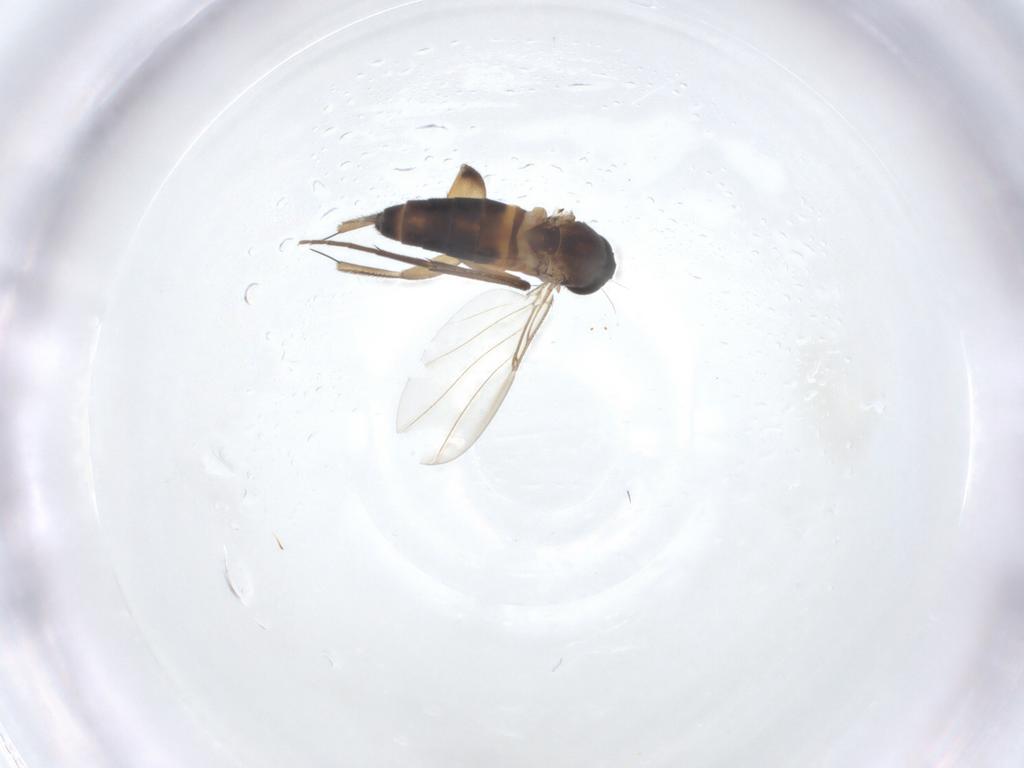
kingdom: Animalia
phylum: Arthropoda
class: Insecta
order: Diptera
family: Phoridae
